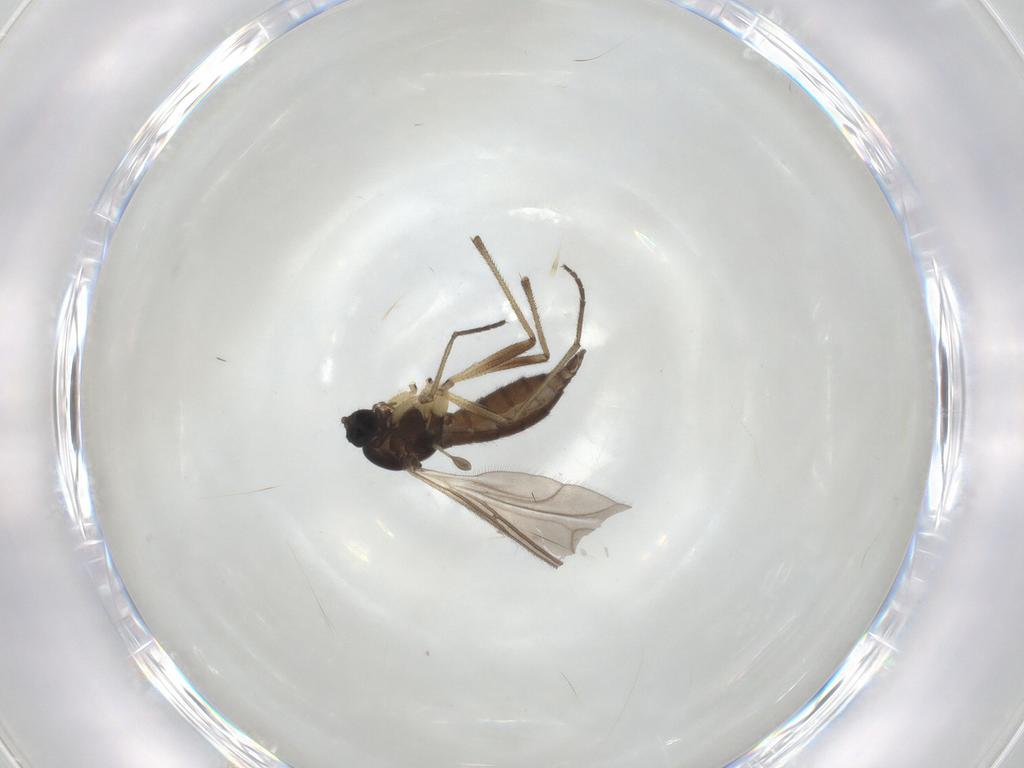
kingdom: Animalia
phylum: Arthropoda
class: Insecta
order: Diptera
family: Sciaridae
